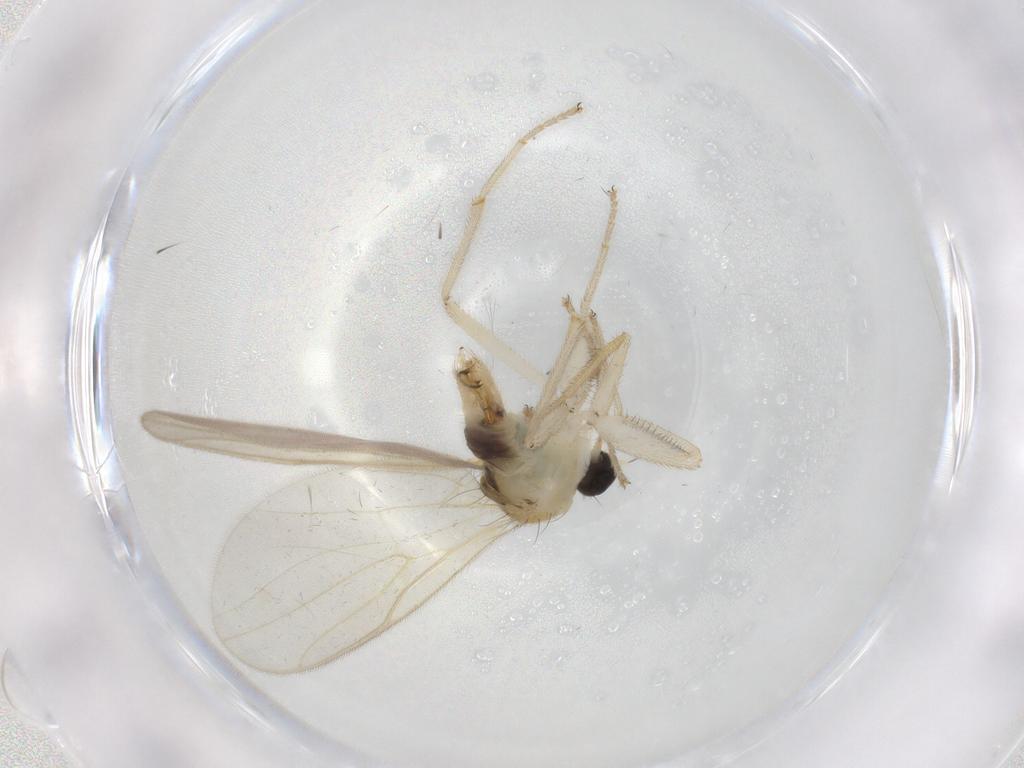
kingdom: Animalia
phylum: Arthropoda
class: Insecta
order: Diptera
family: Hybotidae
